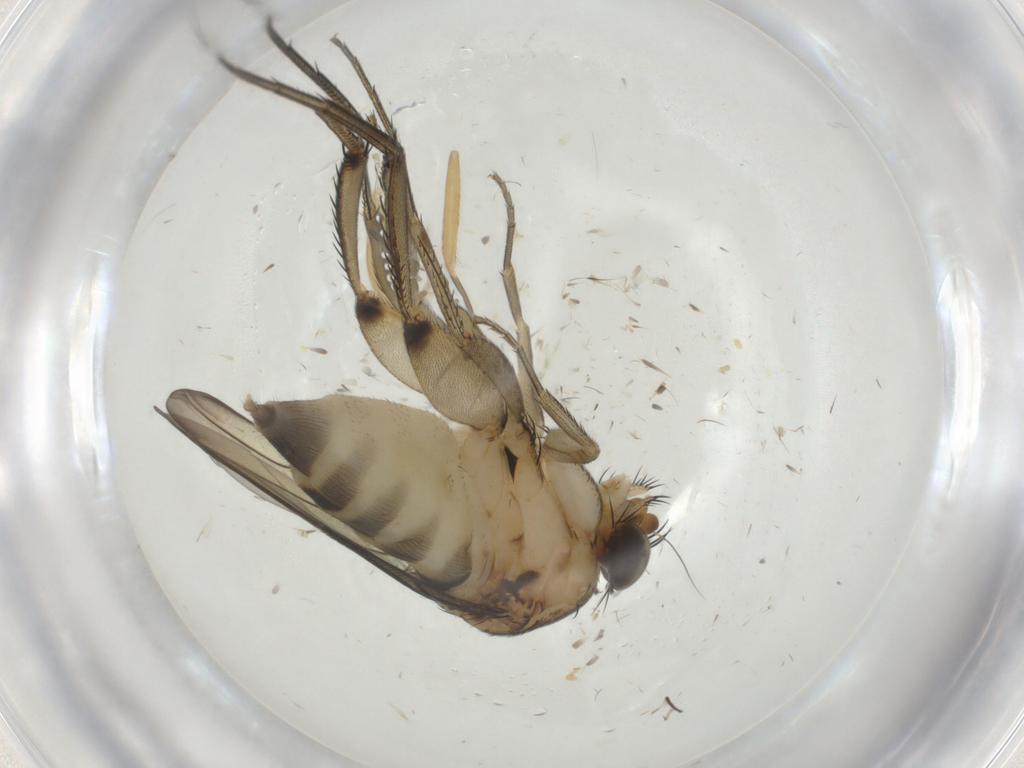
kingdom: Animalia
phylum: Arthropoda
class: Insecta
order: Diptera
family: Phoridae
